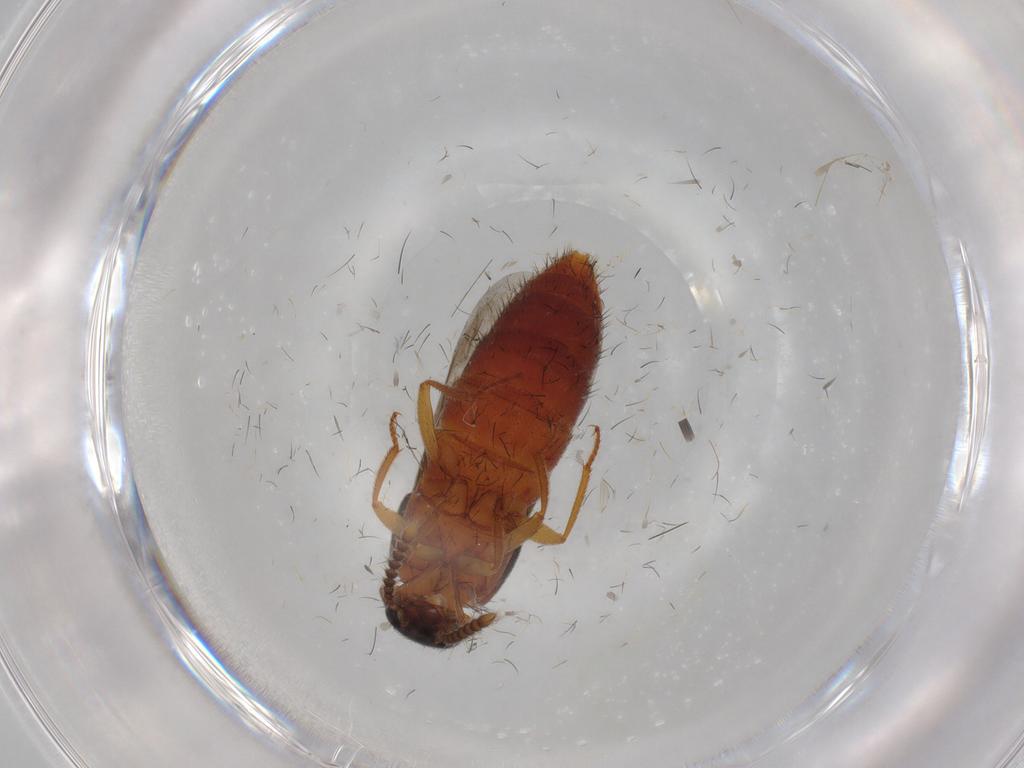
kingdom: Animalia
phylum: Arthropoda
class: Insecta
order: Coleoptera
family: Staphylinidae
